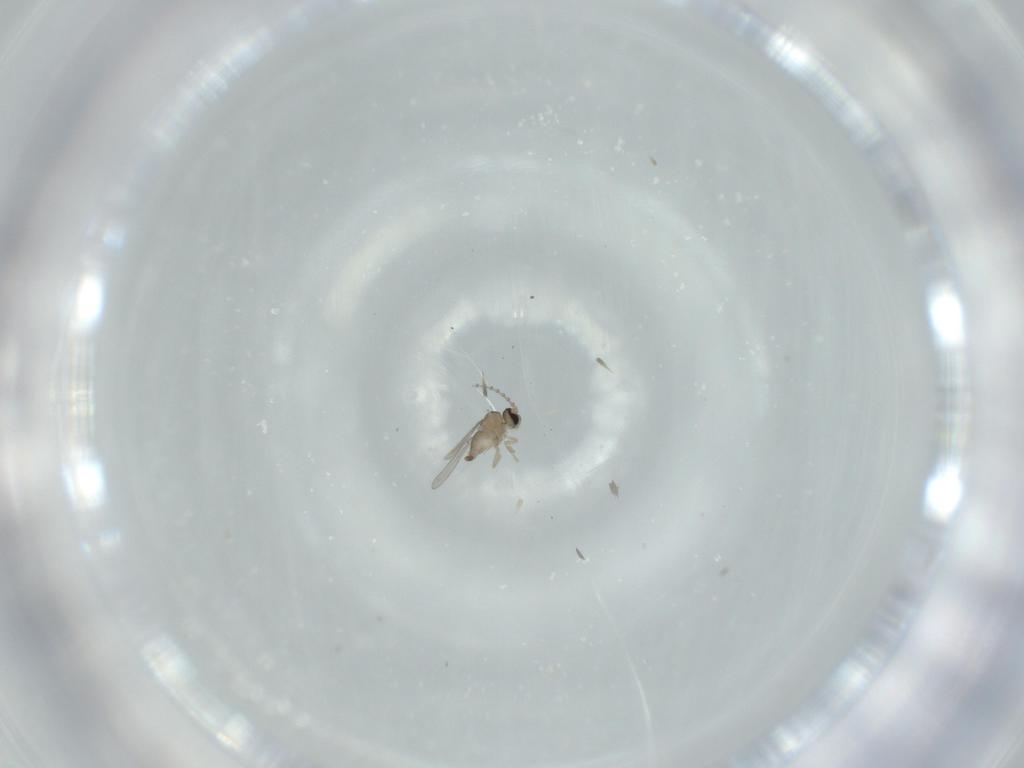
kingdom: Animalia
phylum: Arthropoda
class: Insecta
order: Diptera
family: Cecidomyiidae
